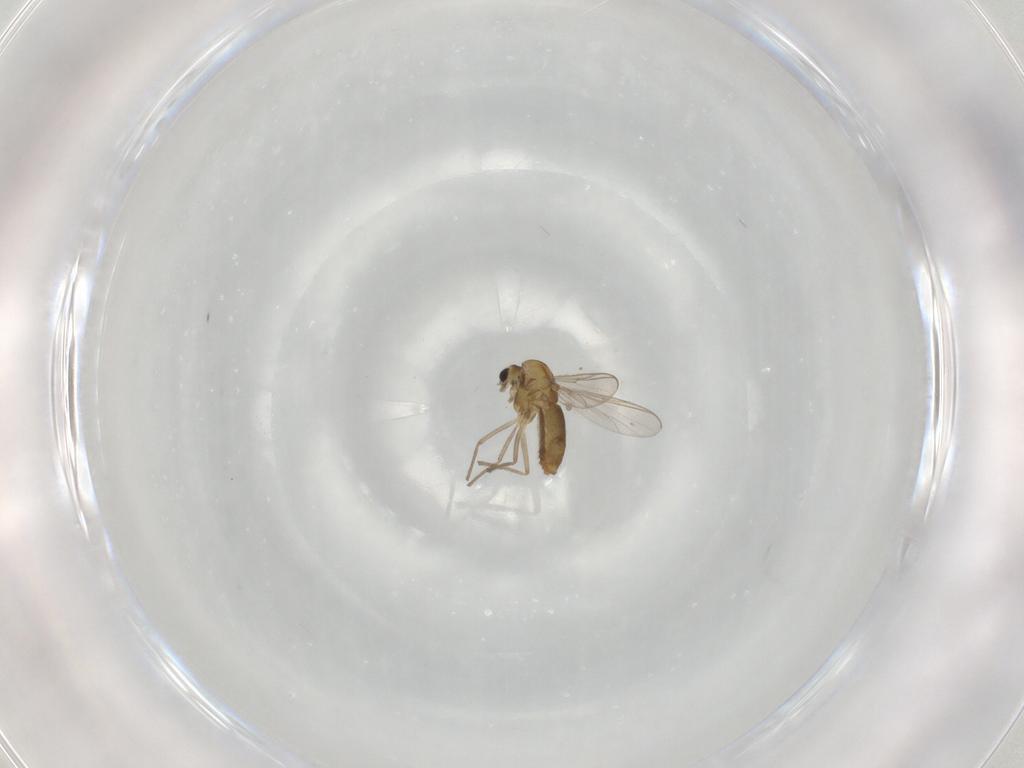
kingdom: Animalia
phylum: Arthropoda
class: Insecta
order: Diptera
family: Chironomidae
